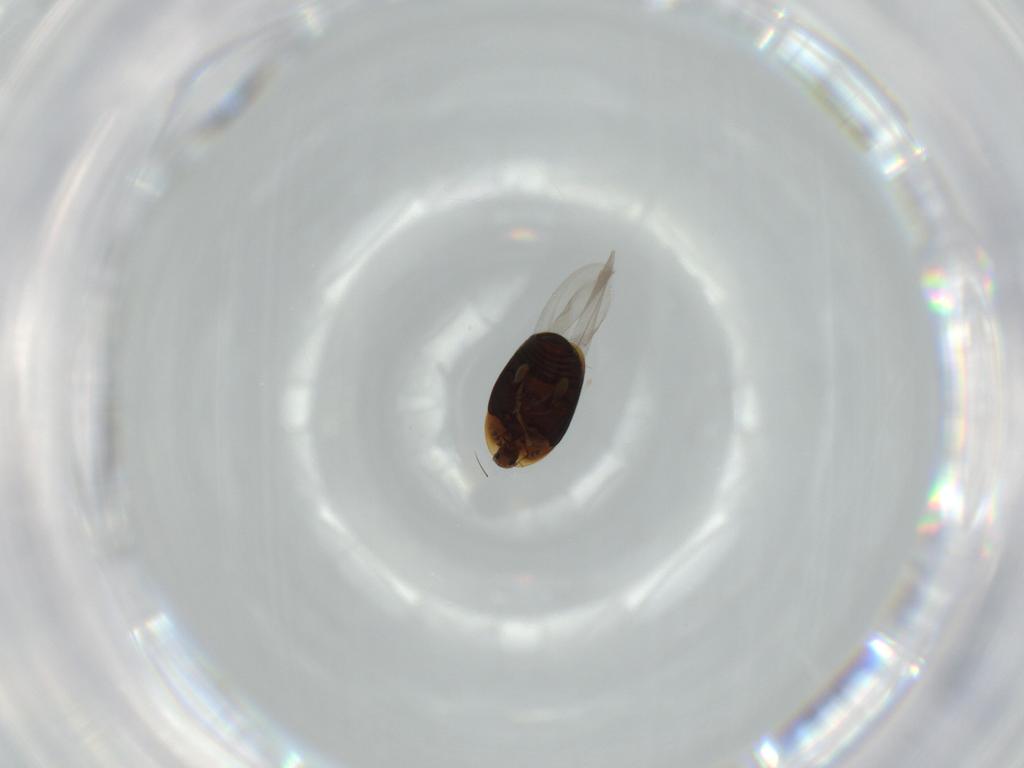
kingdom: Animalia
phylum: Arthropoda
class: Insecta
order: Coleoptera
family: Corylophidae
